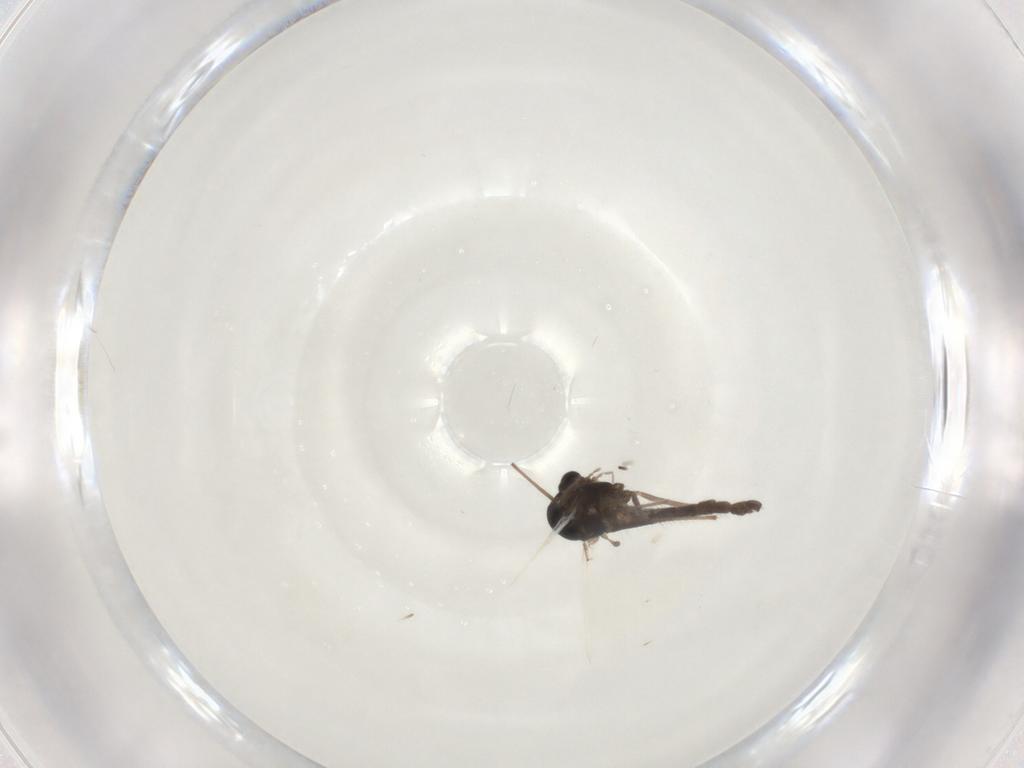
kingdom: Animalia
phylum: Arthropoda
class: Insecta
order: Diptera
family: Chironomidae
